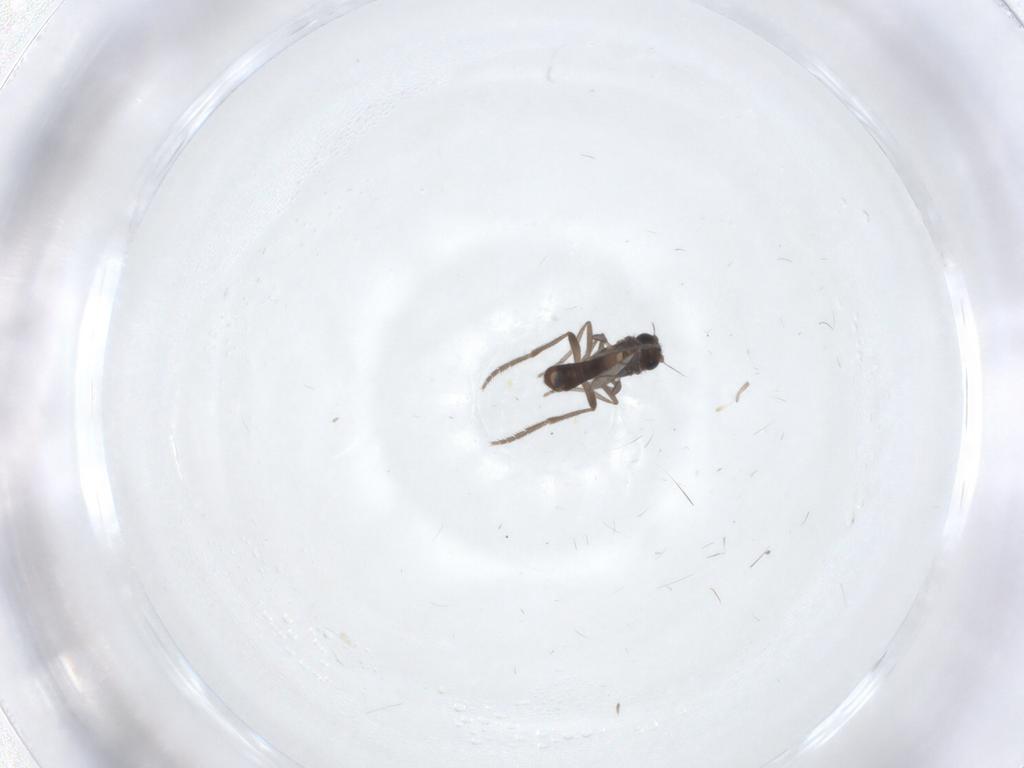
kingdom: Animalia
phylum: Arthropoda
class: Insecta
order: Diptera
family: Phoridae
